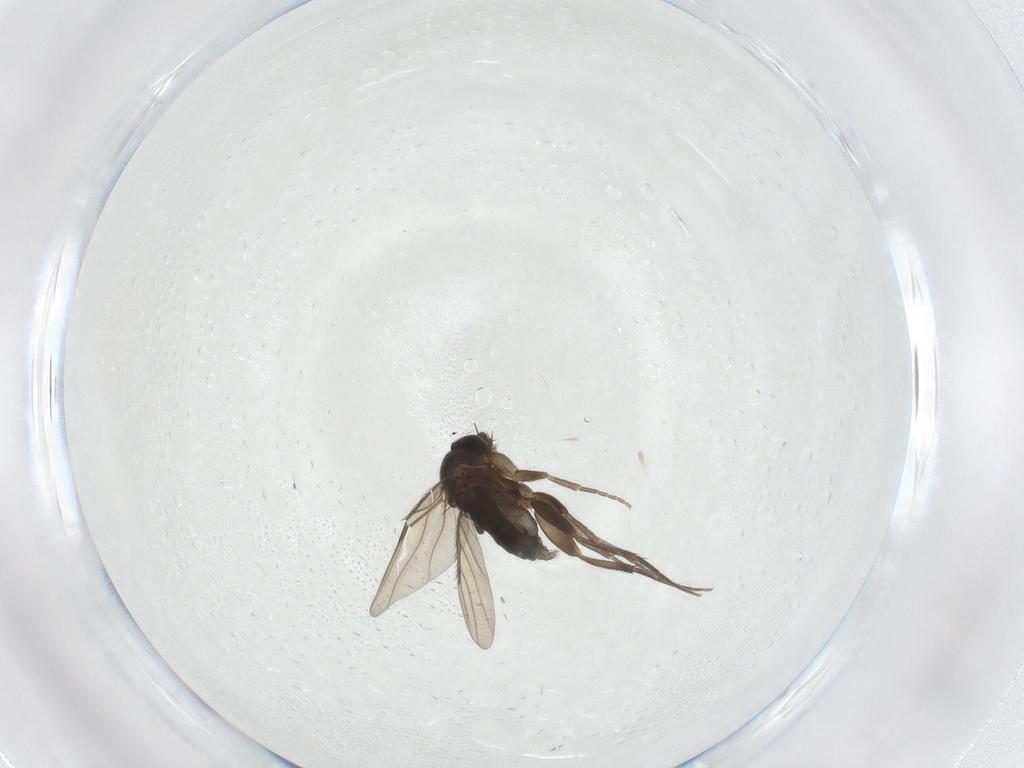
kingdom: Animalia
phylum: Arthropoda
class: Insecta
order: Diptera
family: Phoridae
